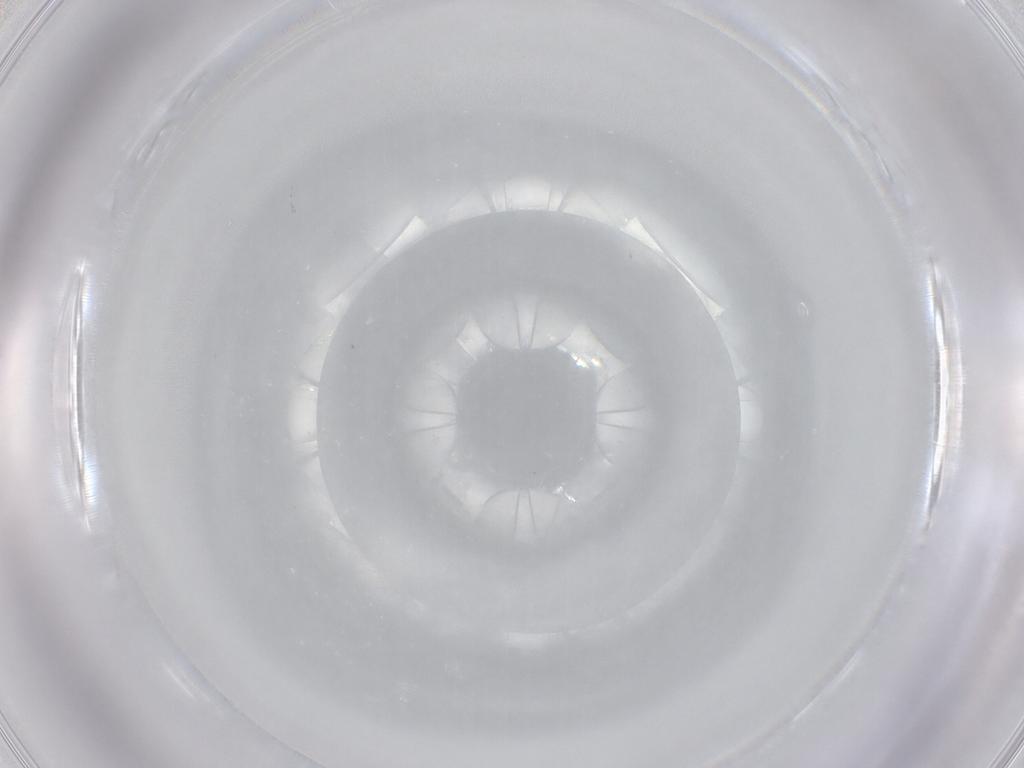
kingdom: Animalia
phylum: Arthropoda
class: Insecta
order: Diptera
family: Sciaridae
